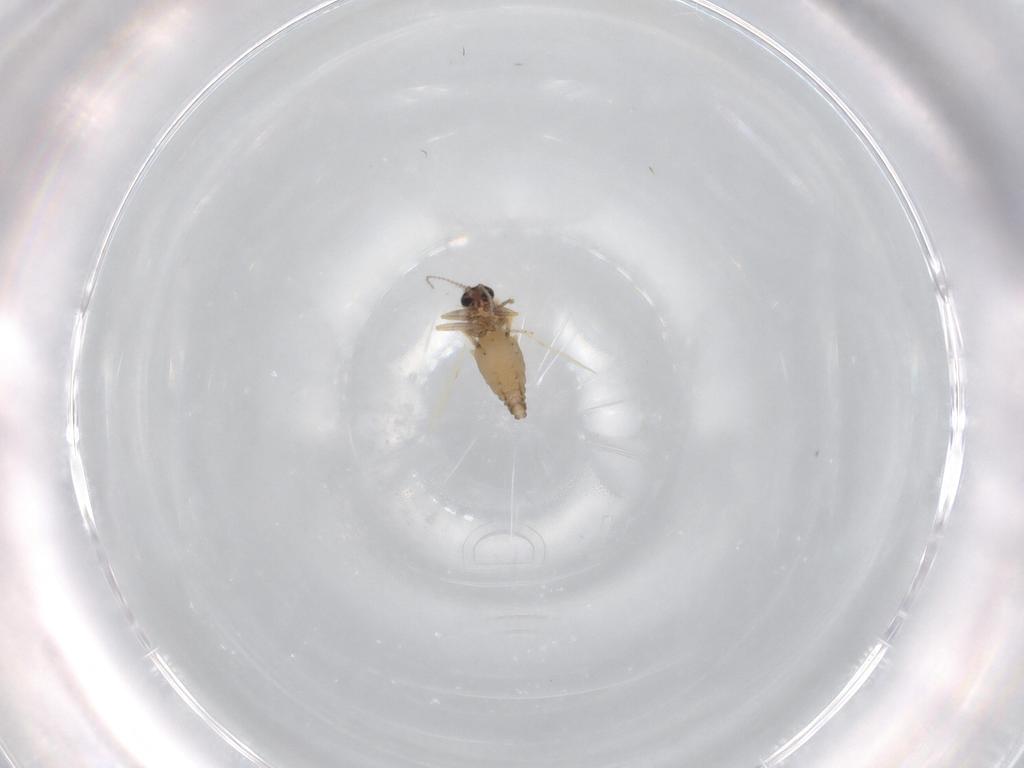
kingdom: Animalia
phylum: Arthropoda
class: Insecta
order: Diptera
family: Ceratopogonidae
